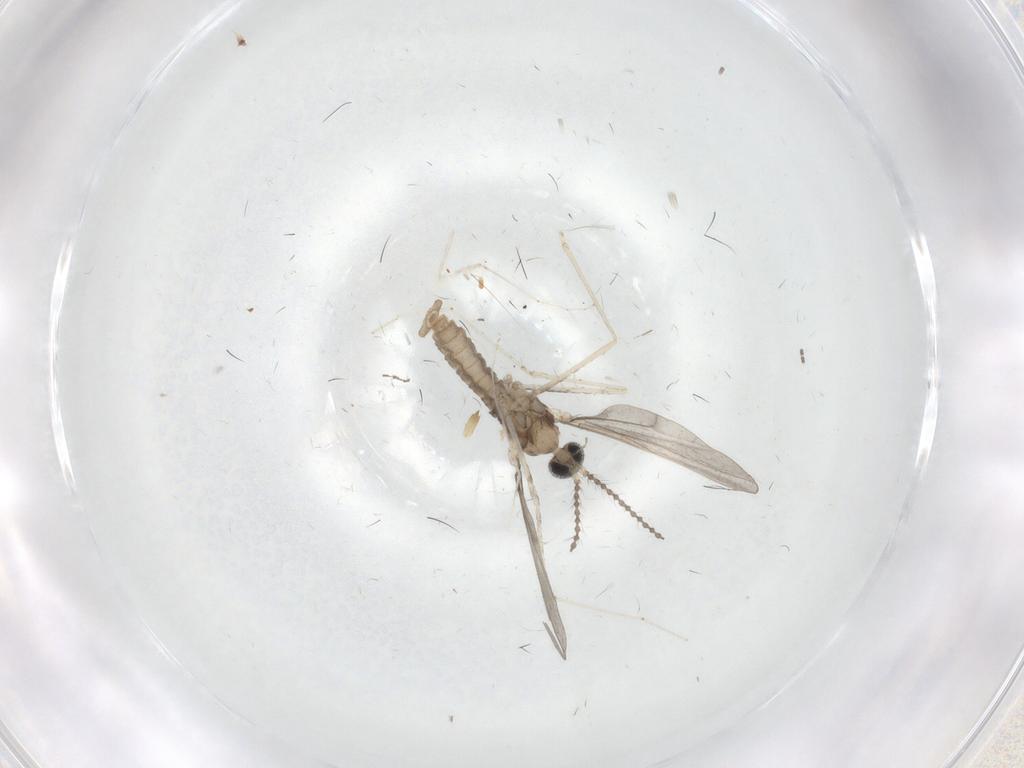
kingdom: Animalia
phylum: Arthropoda
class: Insecta
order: Diptera
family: Cecidomyiidae
